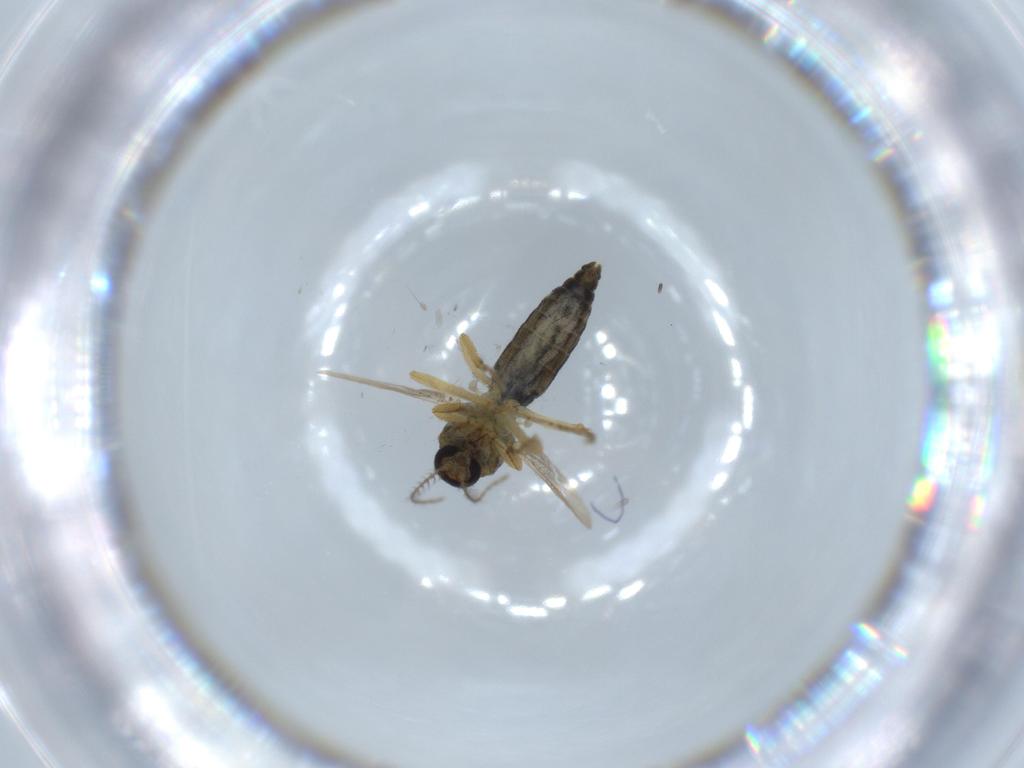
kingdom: Animalia
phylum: Arthropoda
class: Insecta
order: Diptera
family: Ceratopogonidae
